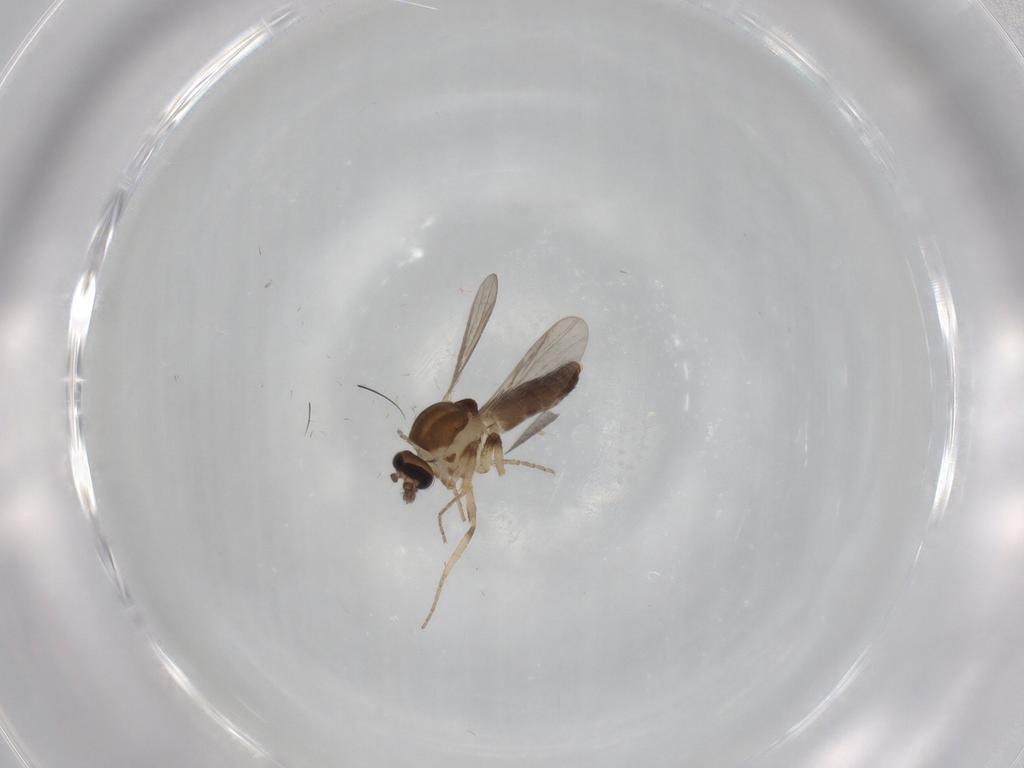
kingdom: Animalia
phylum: Arthropoda
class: Insecta
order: Diptera
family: Ceratopogonidae
